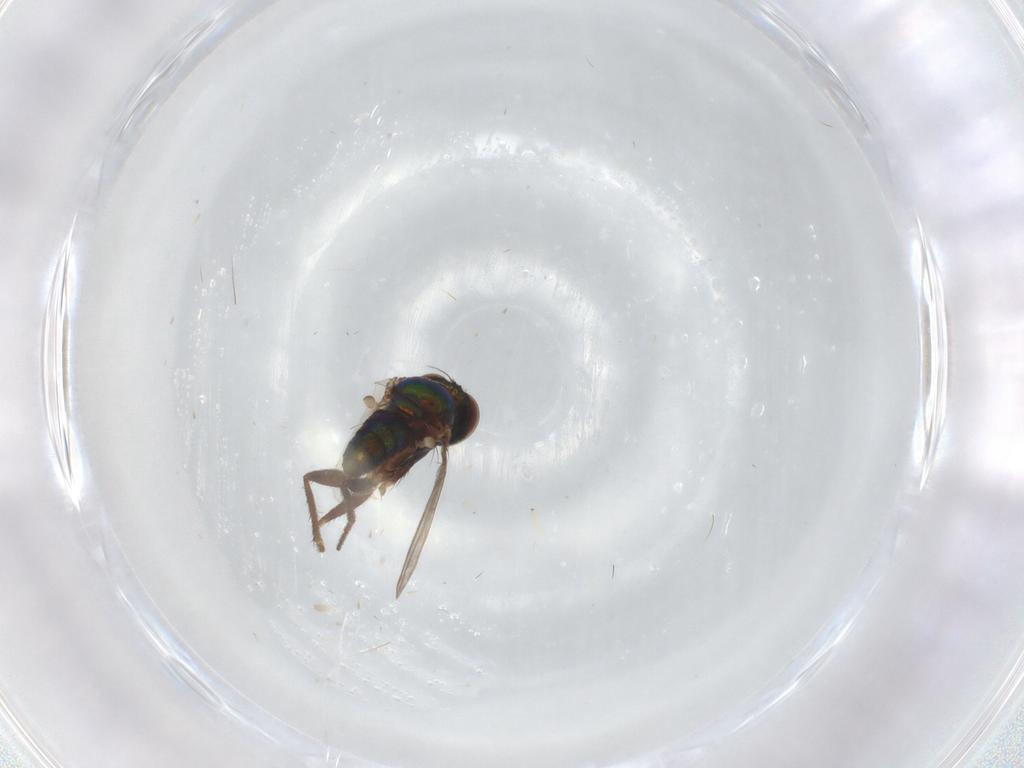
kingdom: Animalia
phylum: Arthropoda
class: Insecta
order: Diptera
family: Cecidomyiidae
